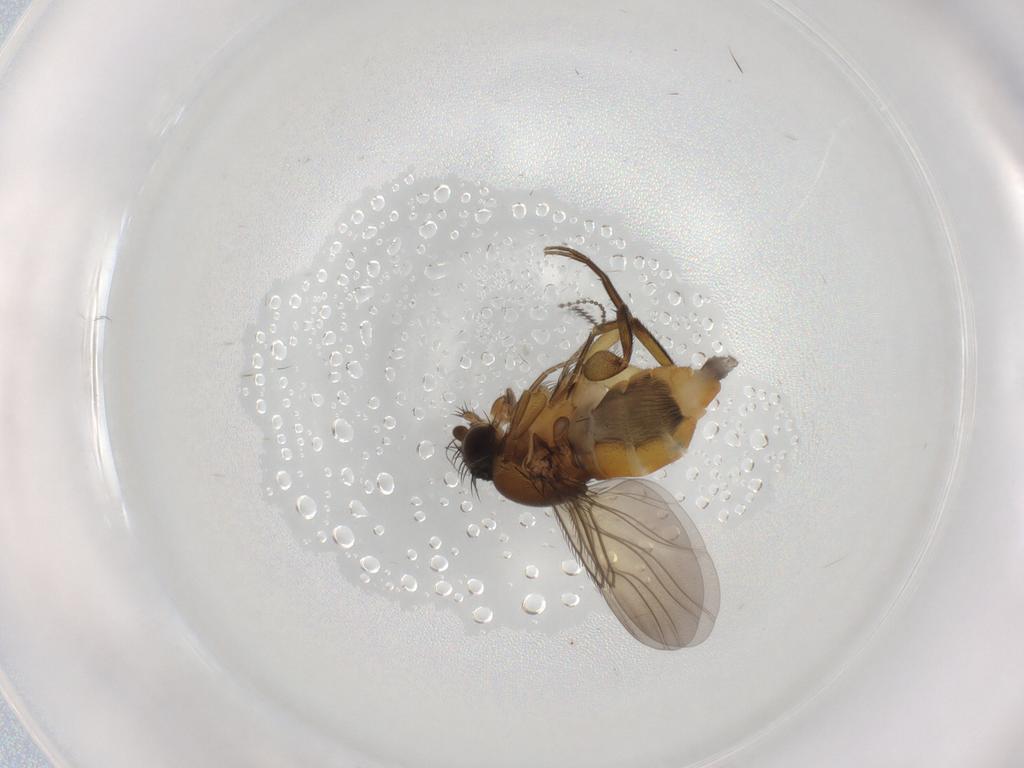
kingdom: Animalia
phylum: Arthropoda
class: Insecta
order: Diptera
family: Phoridae
